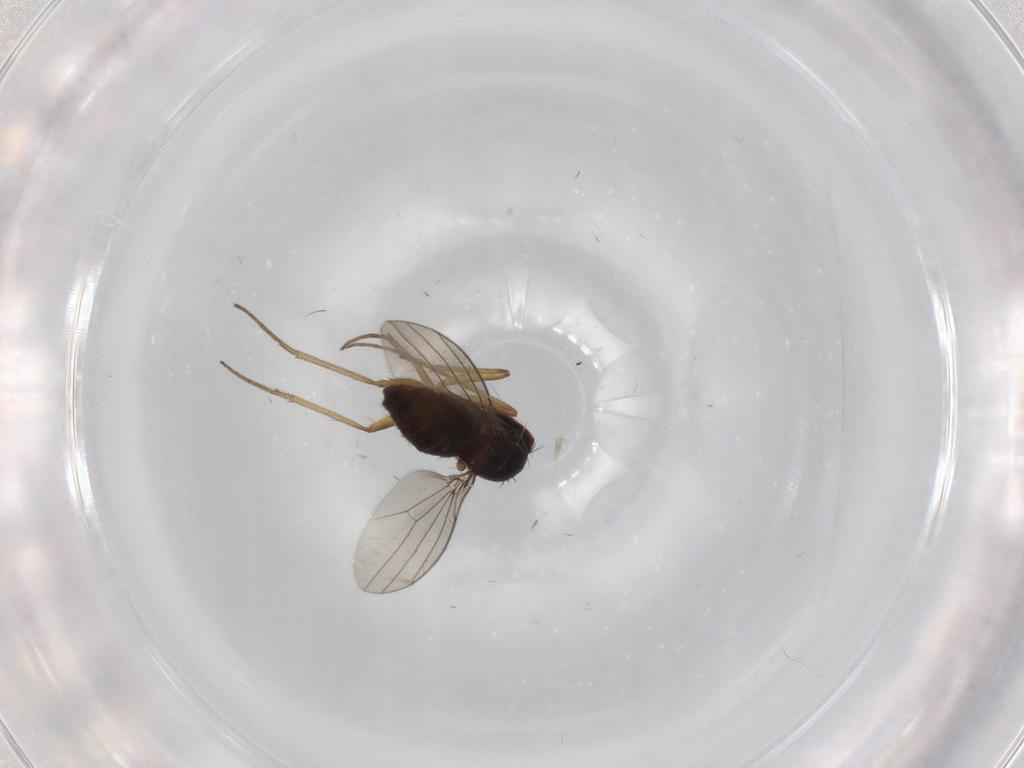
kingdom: Animalia
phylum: Arthropoda
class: Insecta
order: Diptera
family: Dolichopodidae
